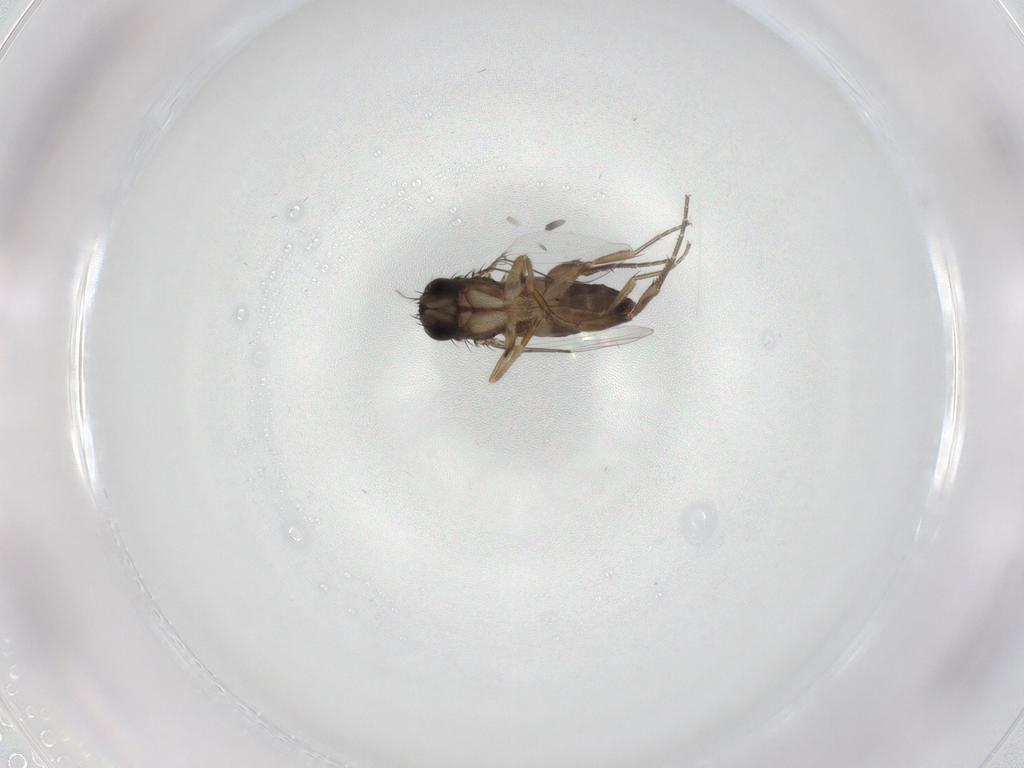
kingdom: Animalia
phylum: Arthropoda
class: Insecta
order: Diptera
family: Phoridae
